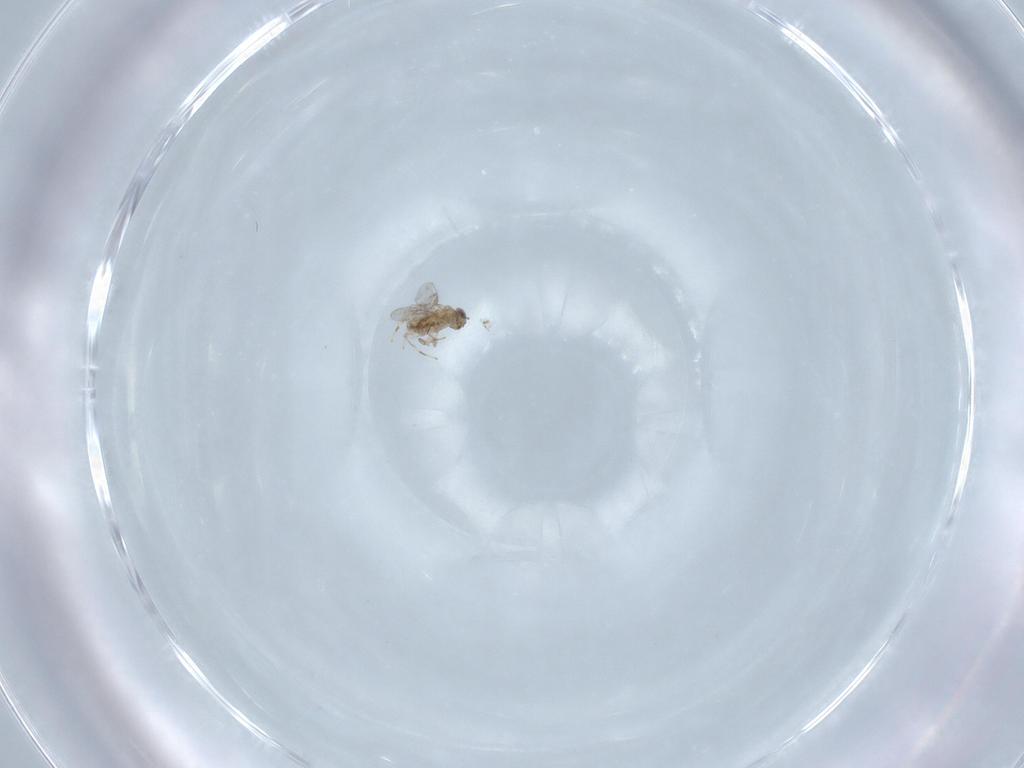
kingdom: Animalia
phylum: Arthropoda
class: Insecta
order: Hymenoptera
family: Aphelinidae
